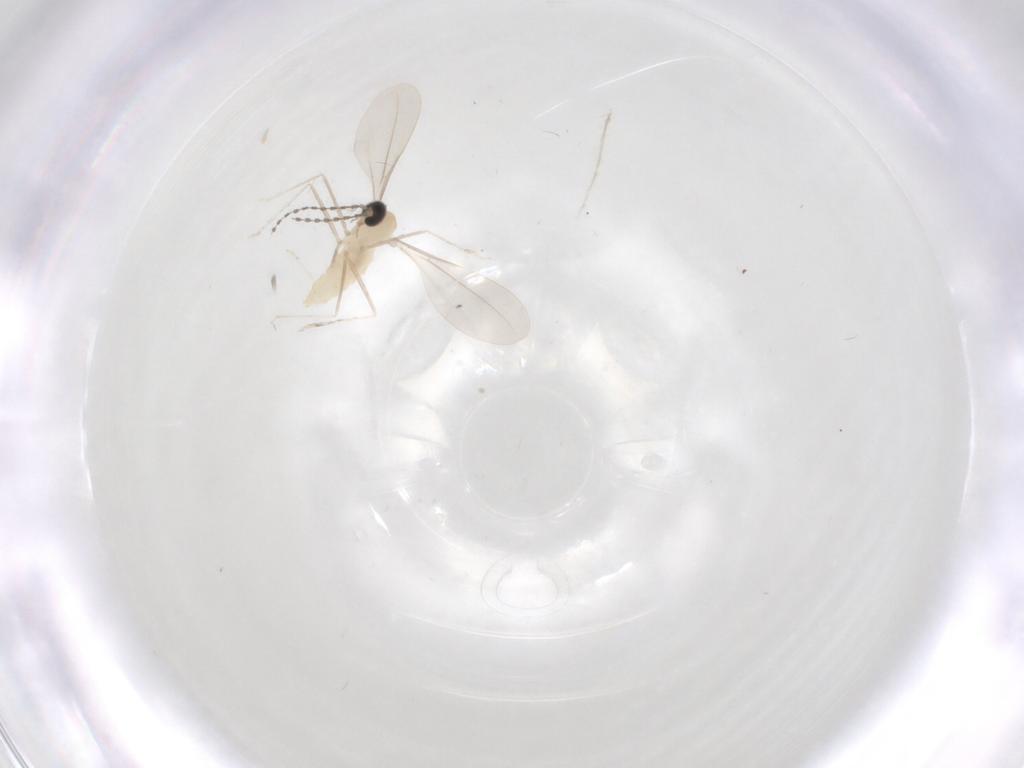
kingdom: Animalia
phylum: Arthropoda
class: Insecta
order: Diptera
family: Cecidomyiidae
